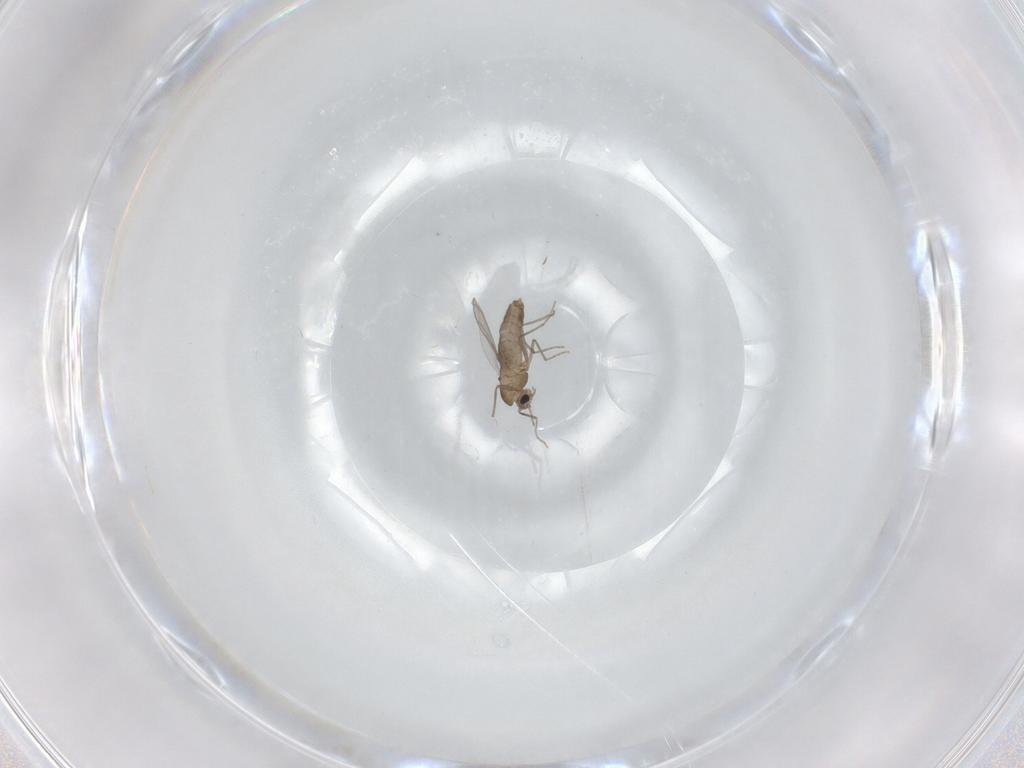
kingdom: Animalia
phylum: Arthropoda
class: Insecta
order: Diptera
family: Chironomidae
